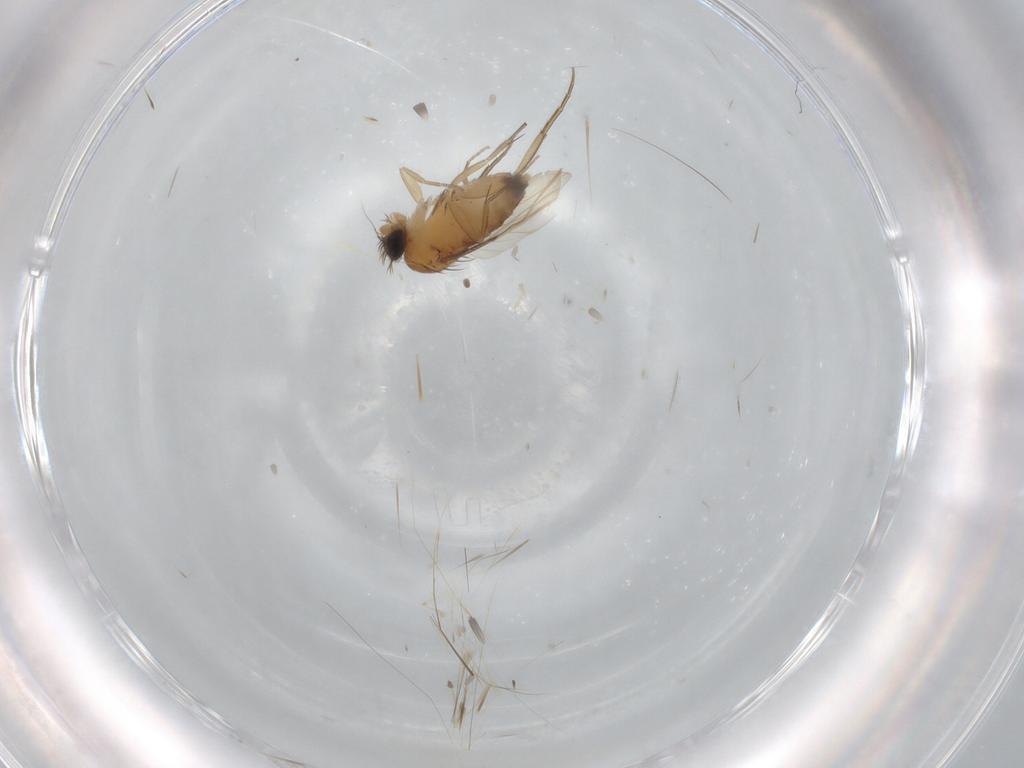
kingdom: Animalia
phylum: Arthropoda
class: Insecta
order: Diptera
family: Phoridae
